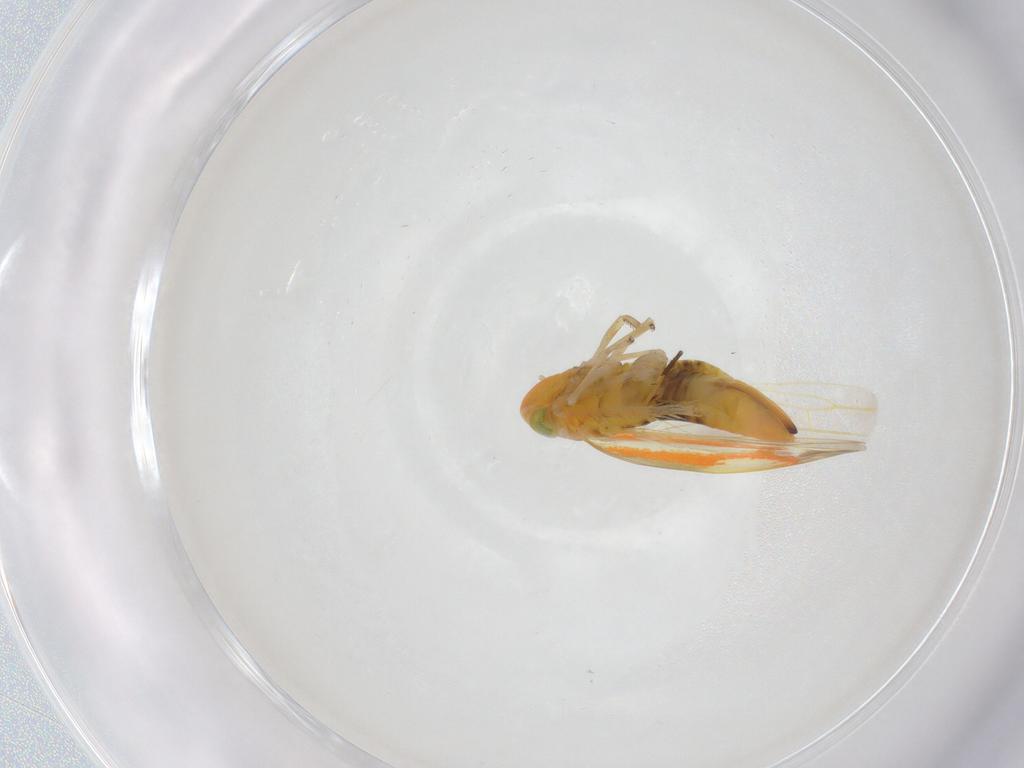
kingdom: Animalia
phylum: Arthropoda
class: Insecta
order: Hemiptera
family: Cicadellidae
